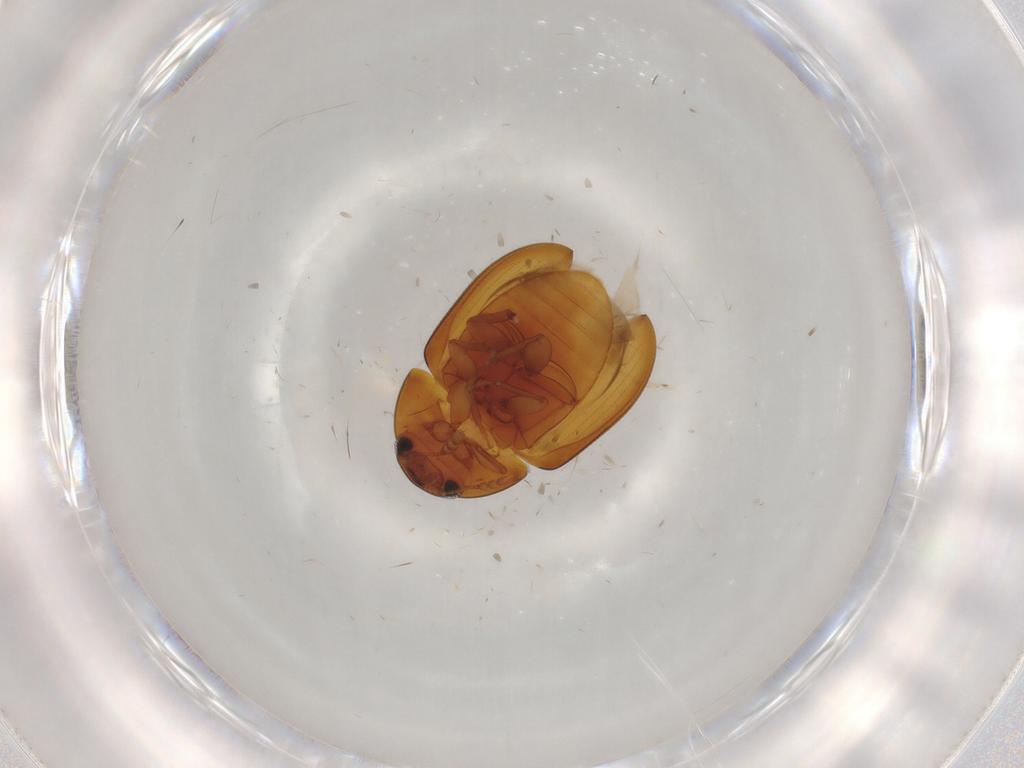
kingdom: Animalia
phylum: Arthropoda
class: Insecta
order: Coleoptera
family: Phalacridae
